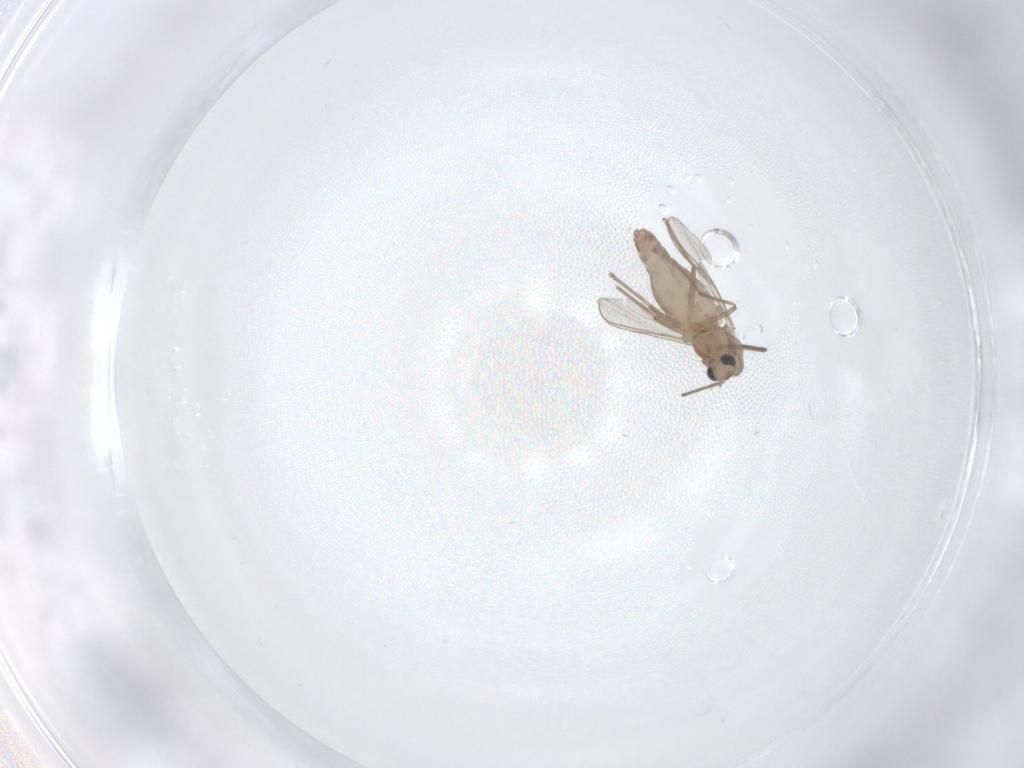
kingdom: Animalia
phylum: Arthropoda
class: Insecta
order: Diptera
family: Chironomidae
